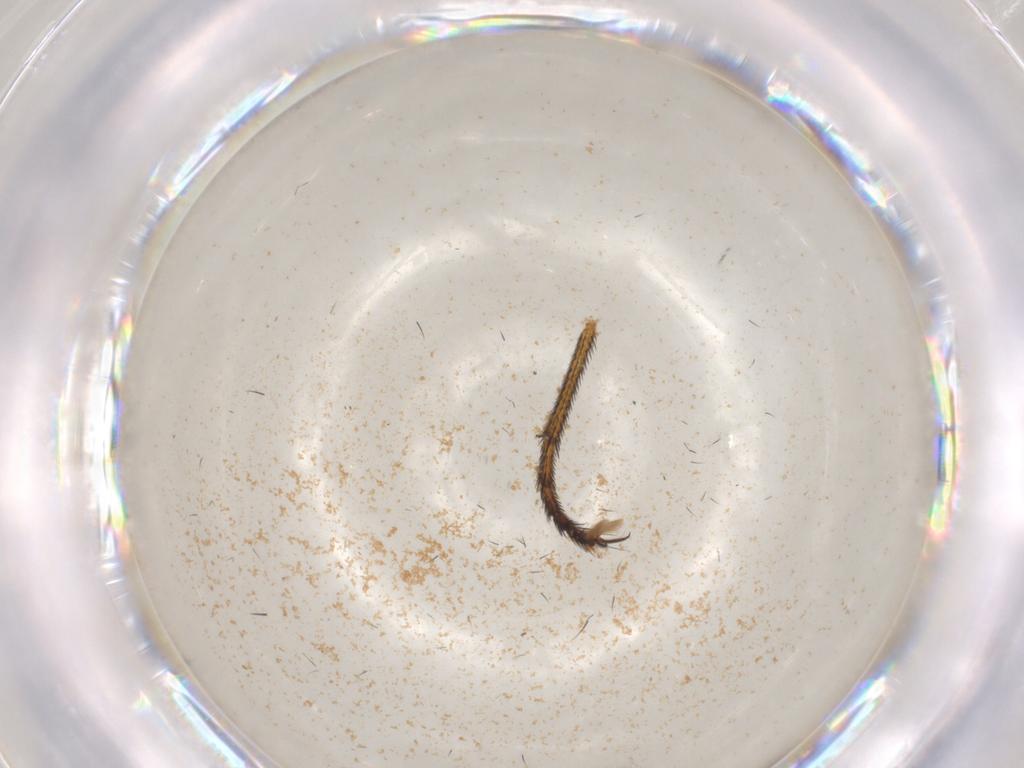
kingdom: Animalia
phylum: Arthropoda
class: Insecta
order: Diptera
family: Tachinidae
